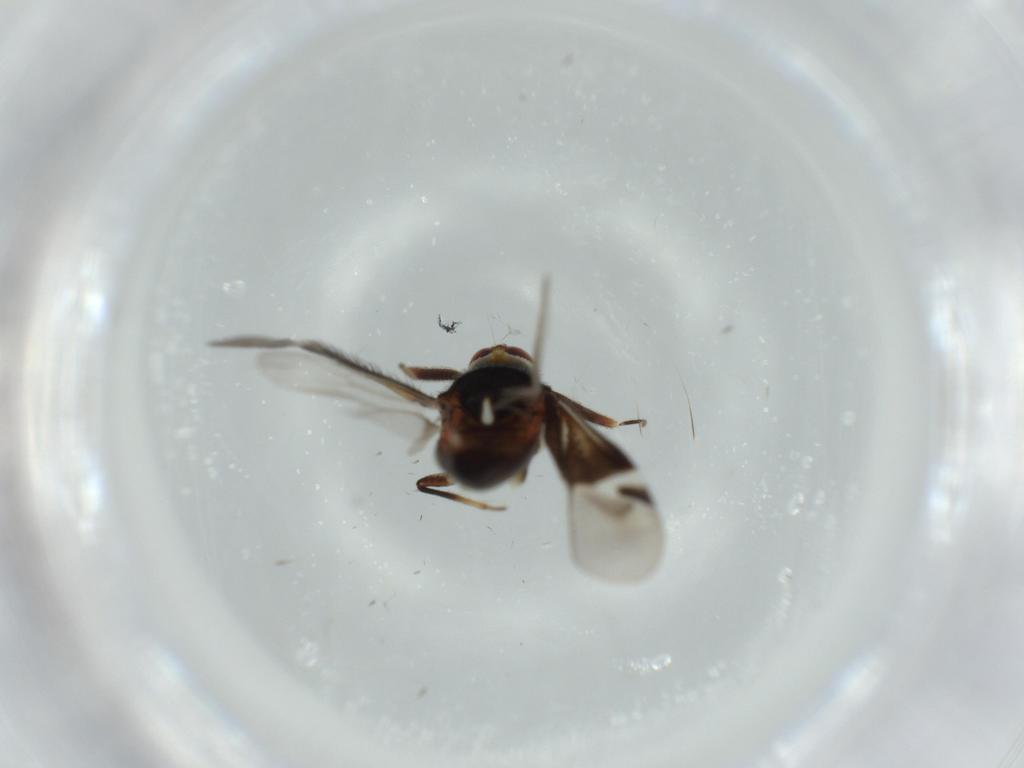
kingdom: Animalia
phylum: Arthropoda
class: Insecta
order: Hemiptera
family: Miridae
